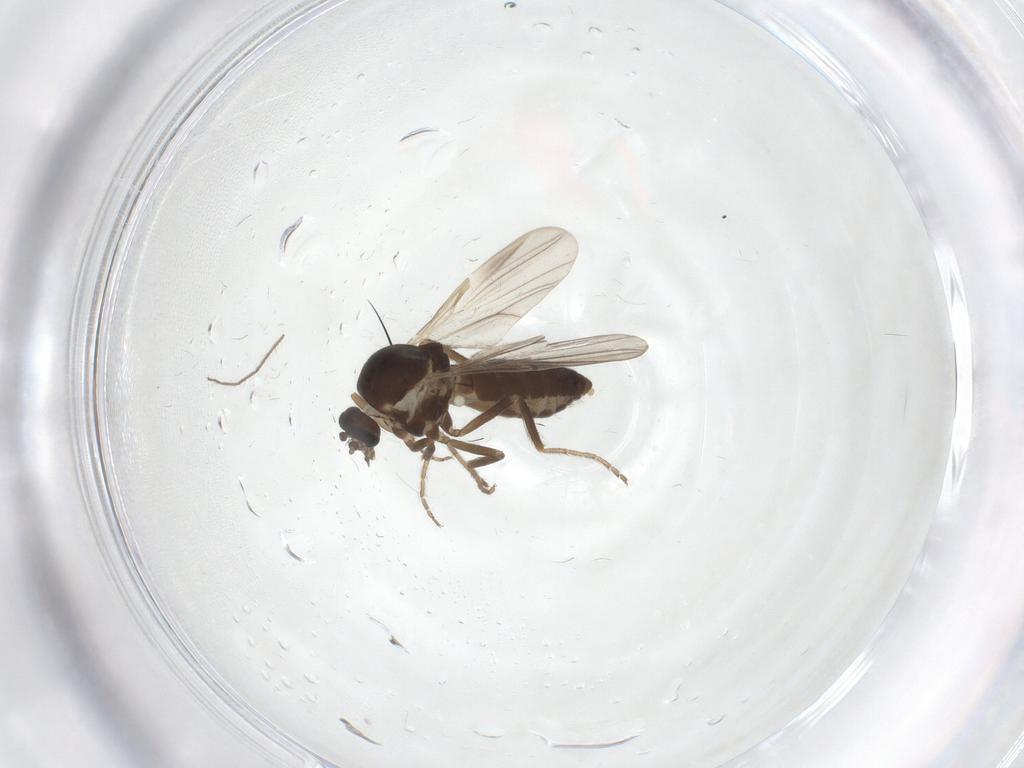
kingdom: Animalia
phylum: Arthropoda
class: Insecta
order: Diptera
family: Ceratopogonidae
